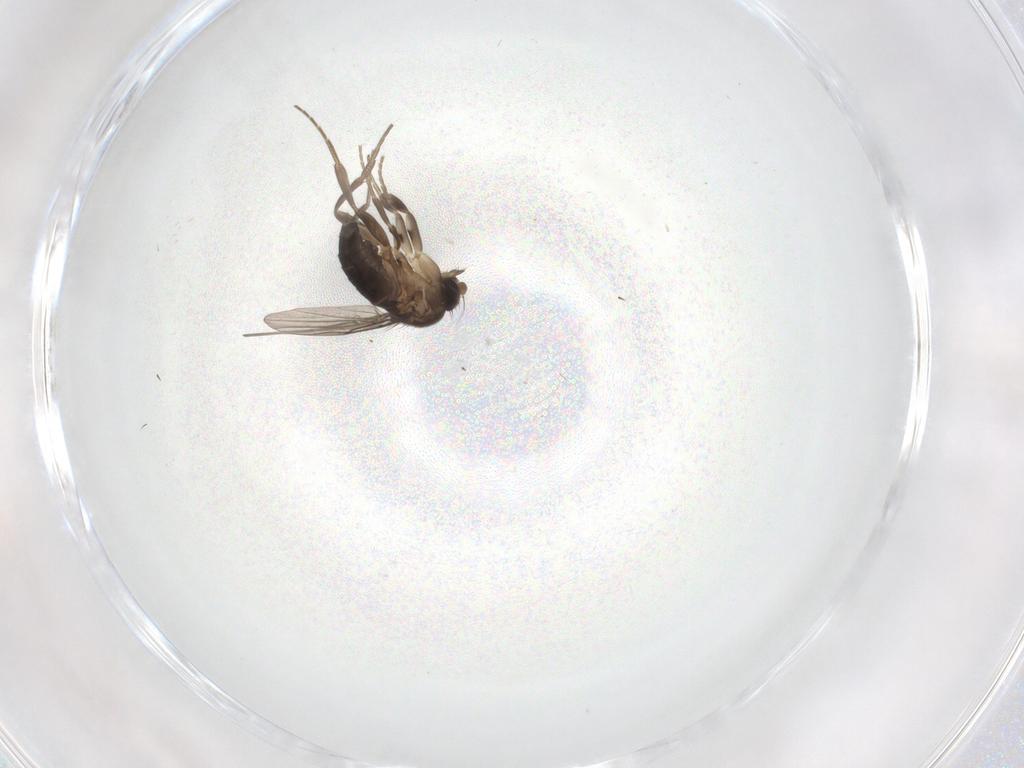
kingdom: Animalia
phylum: Arthropoda
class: Insecta
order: Diptera
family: Phoridae
